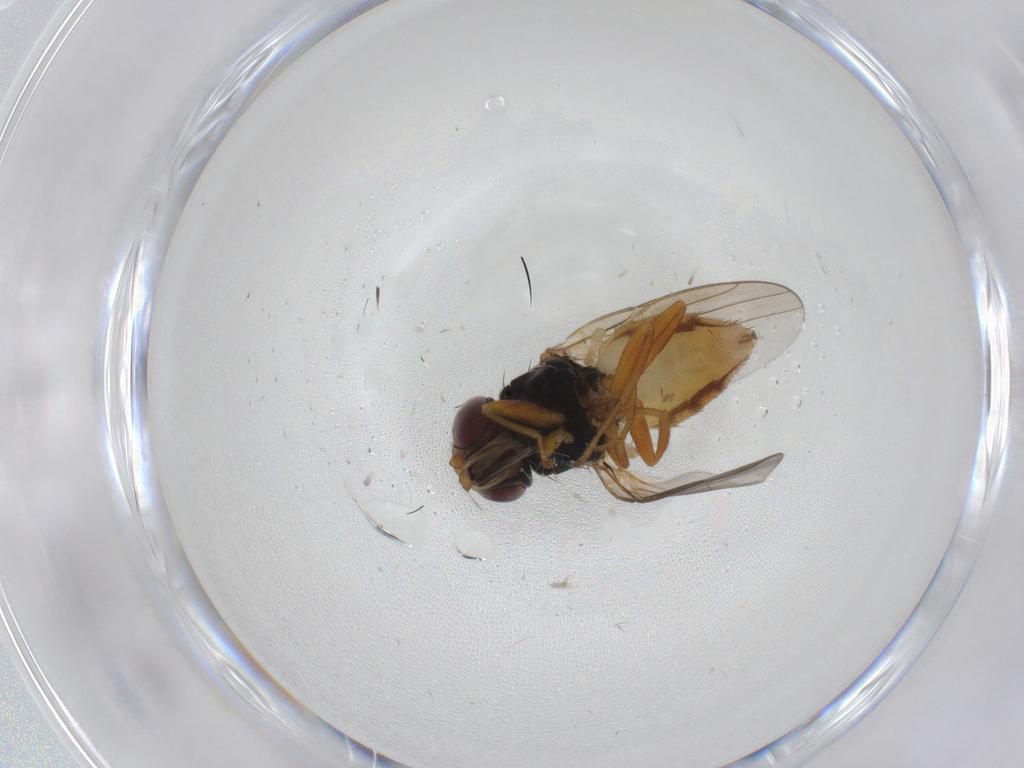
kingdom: Animalia
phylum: Arthropoda
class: Insecta
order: Diptera
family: Chloropidae
